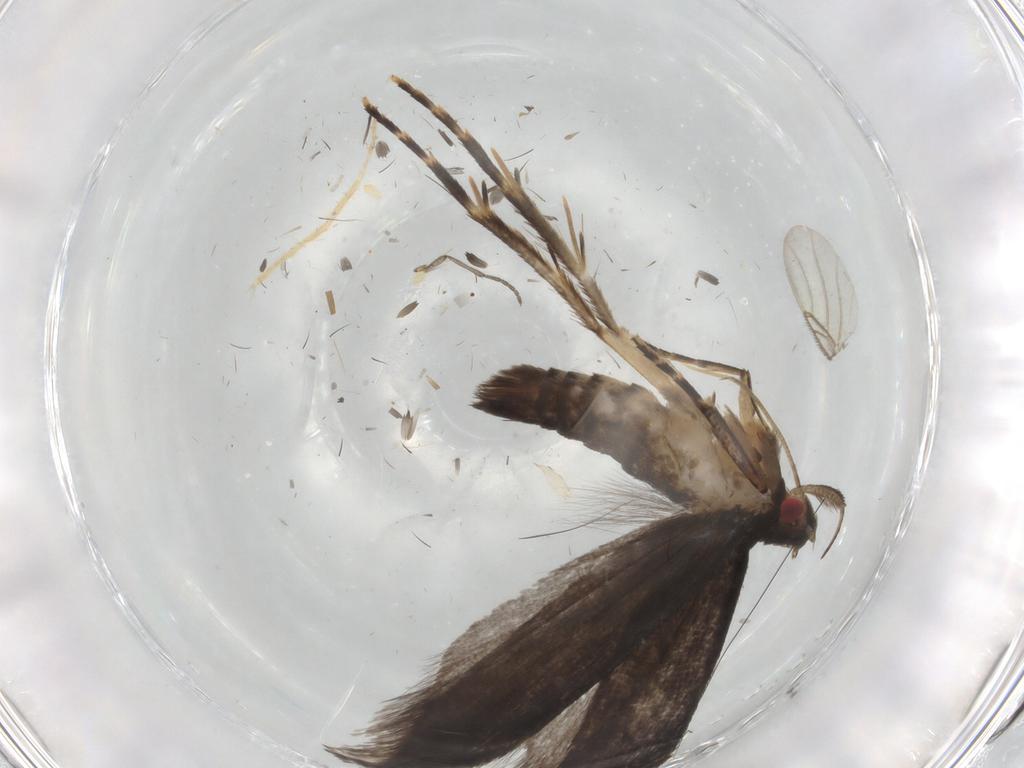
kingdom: Animalia
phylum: Arthropoda
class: Insecta
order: Lepidoptera
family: Gelechiidae
